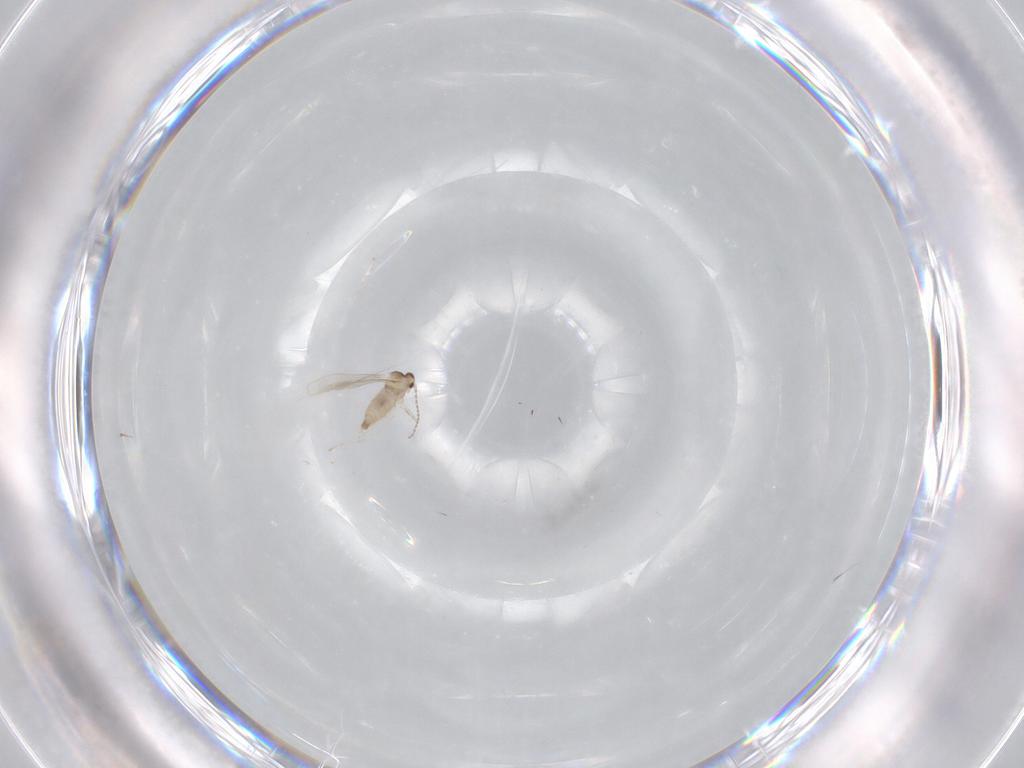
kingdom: Animalia
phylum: Arthropoda
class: Insecta
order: Diptera
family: Cecidomyiidae
